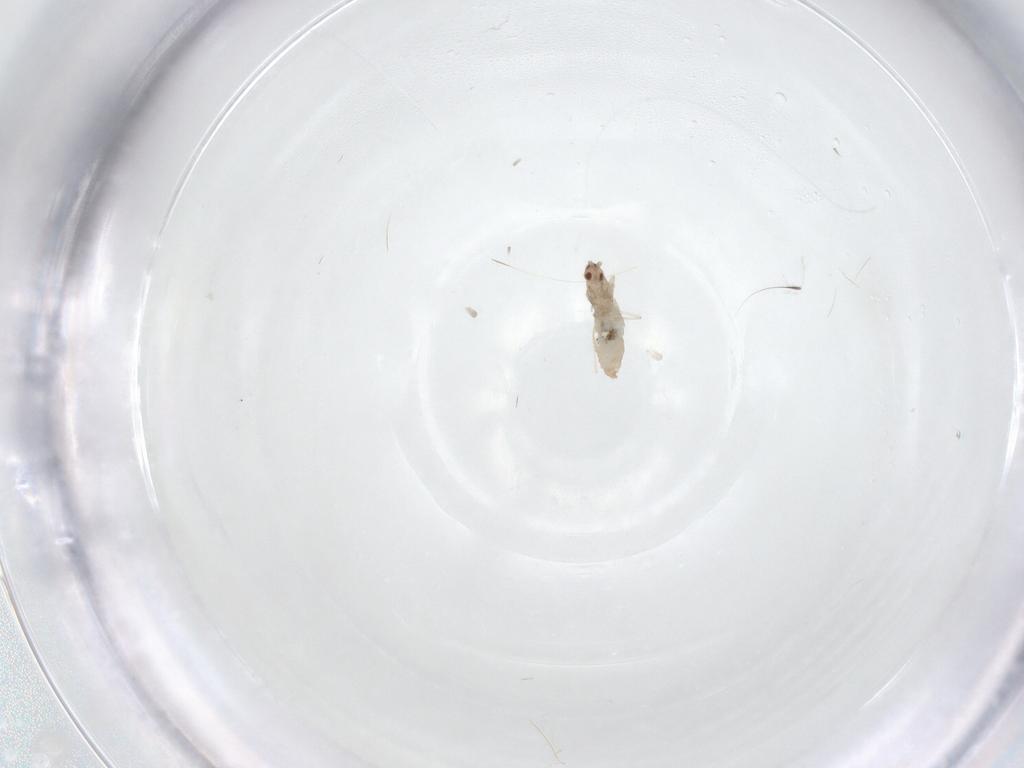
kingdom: Animalia
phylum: Arthropoda
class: Insecta
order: Diptera
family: Cecidomyiidae
